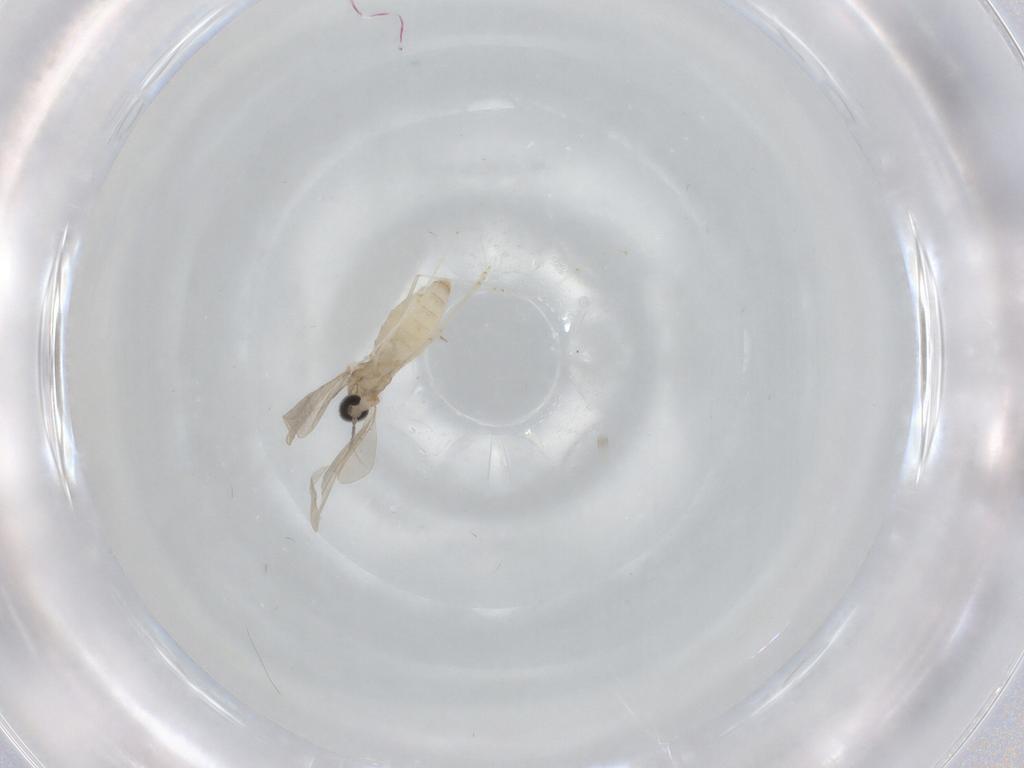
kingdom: Animalia
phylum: Arthropoda
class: Insecta
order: Diptera
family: Cecidomyiidae
